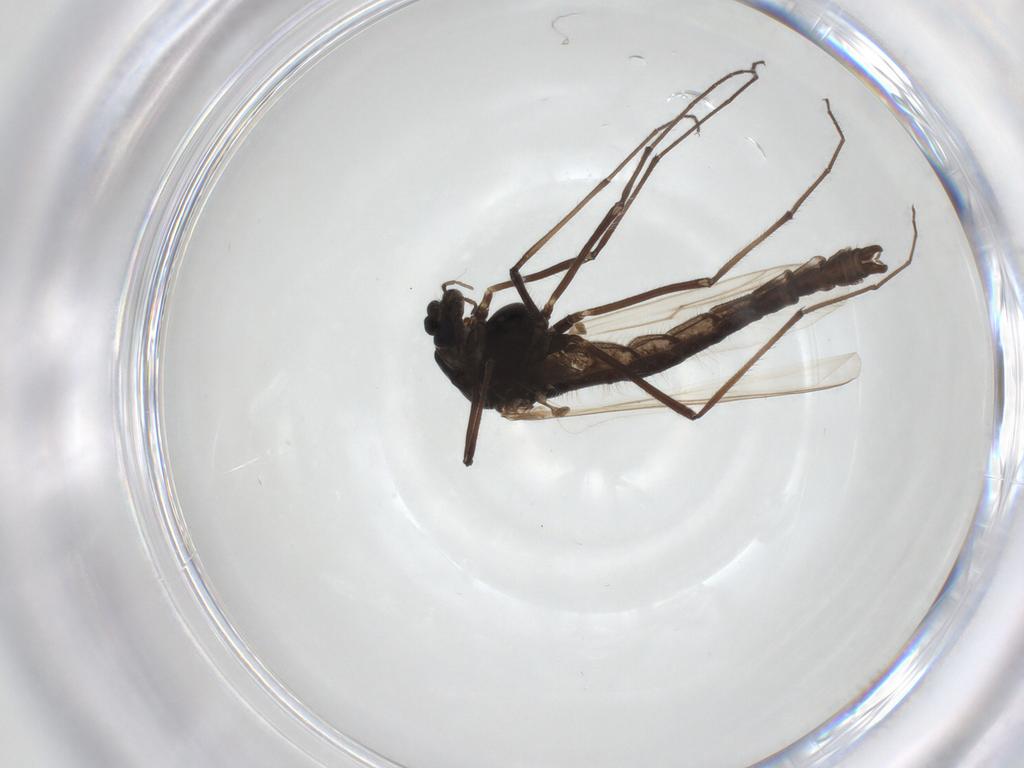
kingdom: Animalia
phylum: Arthropoda
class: Insecta
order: Diptera
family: Chironomidae
